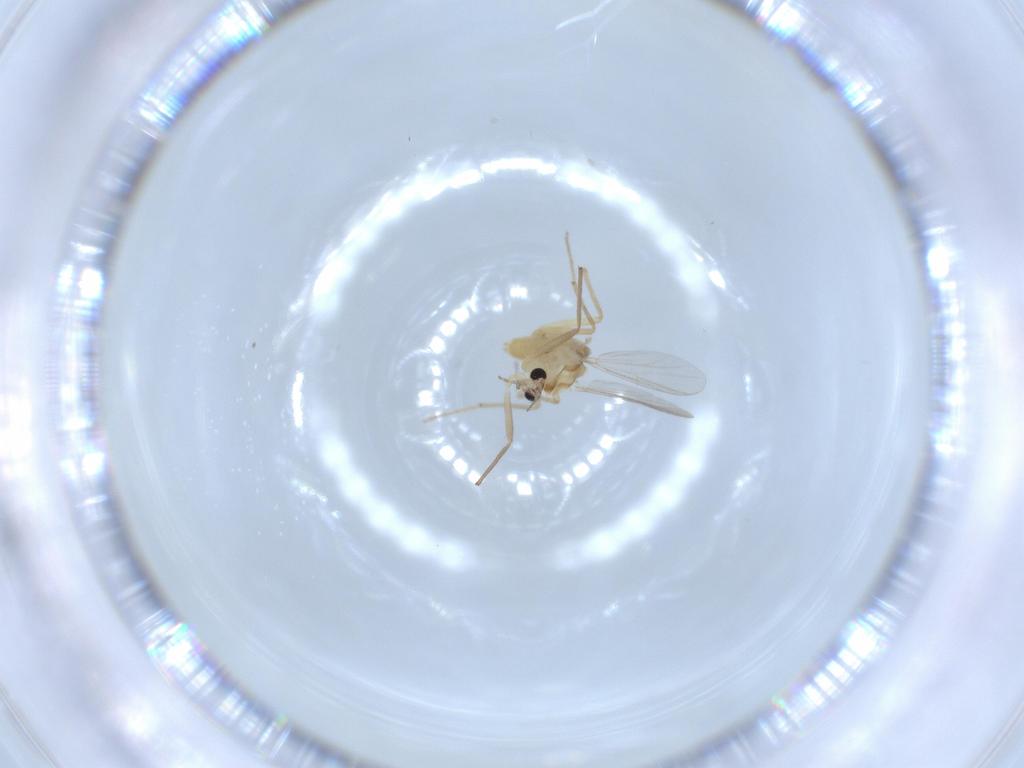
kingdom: Animalia
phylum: Arthropoda
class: Insecta
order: Diptera
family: Chironomidae
